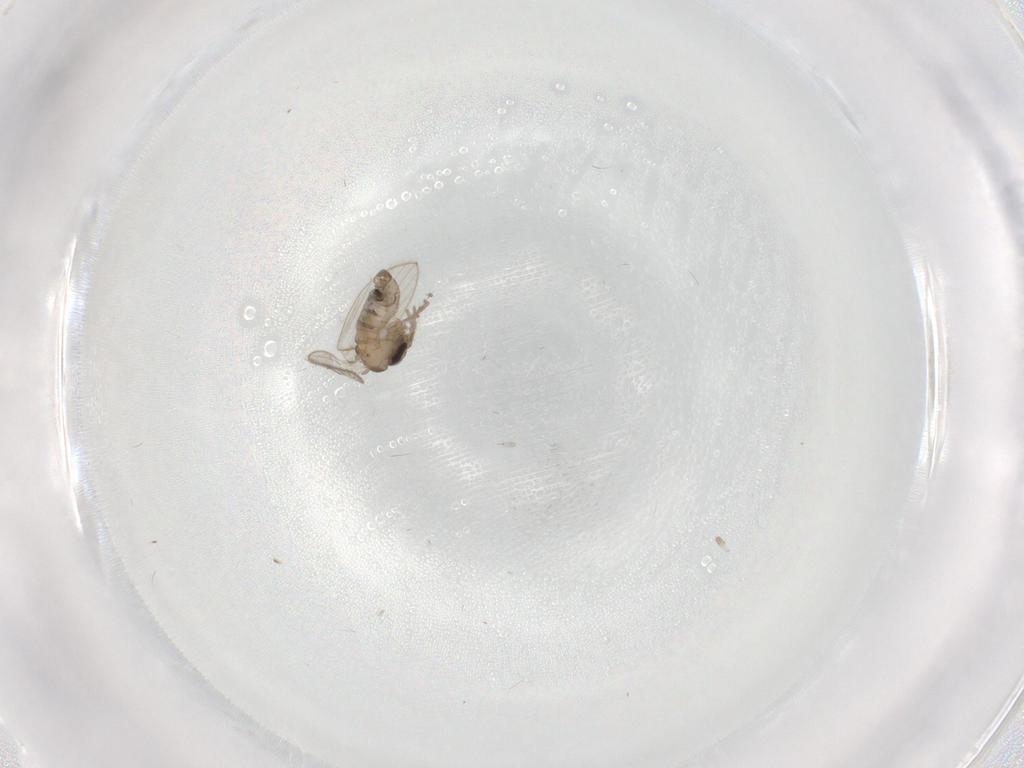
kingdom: Animalia
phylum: Arthropoda
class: Insecta
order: Diptera
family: Psychodidae
